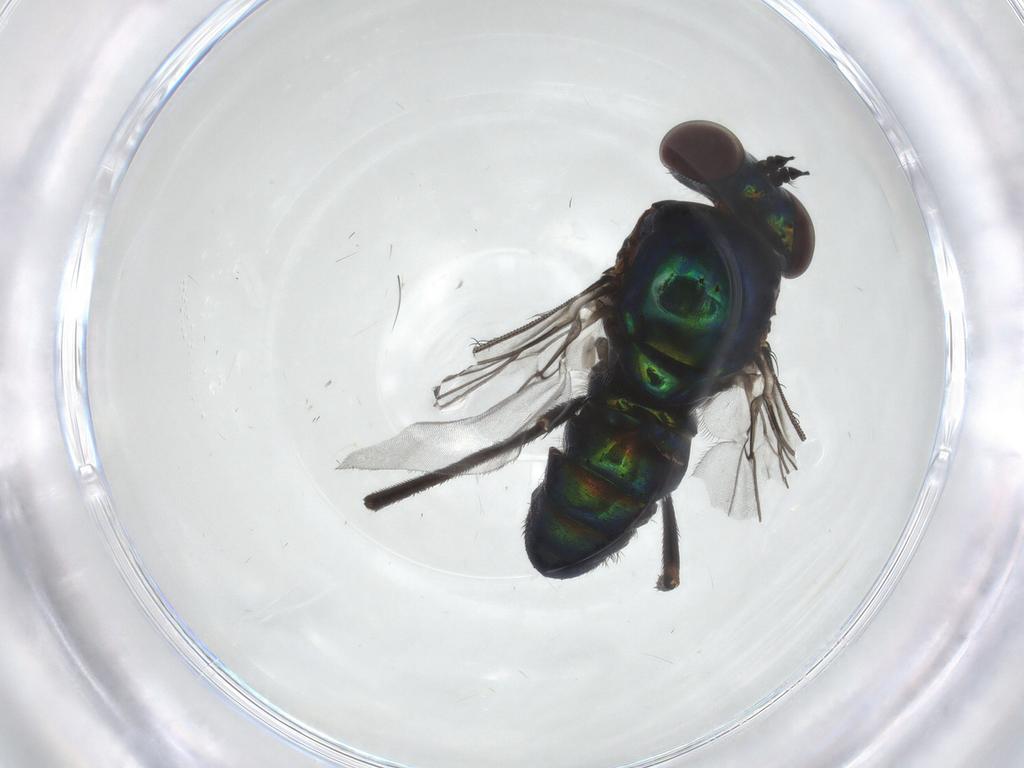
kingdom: Animalia
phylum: Arthropoda
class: Insecta
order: Diptera
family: Dolichopodidae
